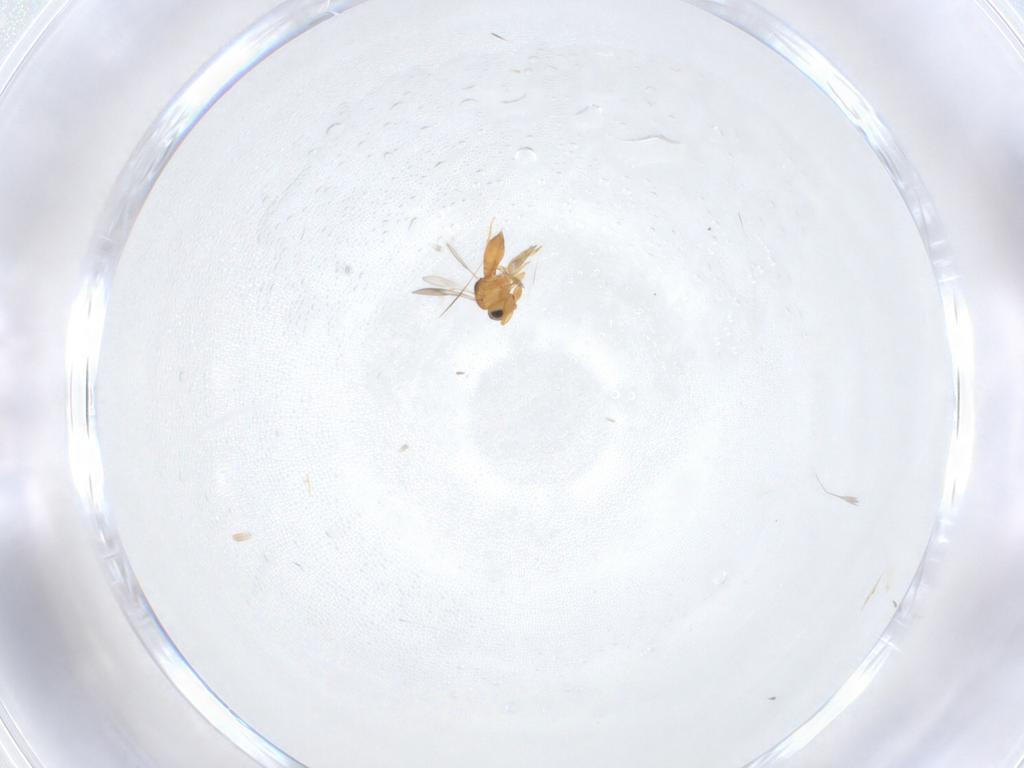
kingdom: Animalia
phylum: Arthropoda
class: Insecta
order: Hymenoptera
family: Scelionidae
